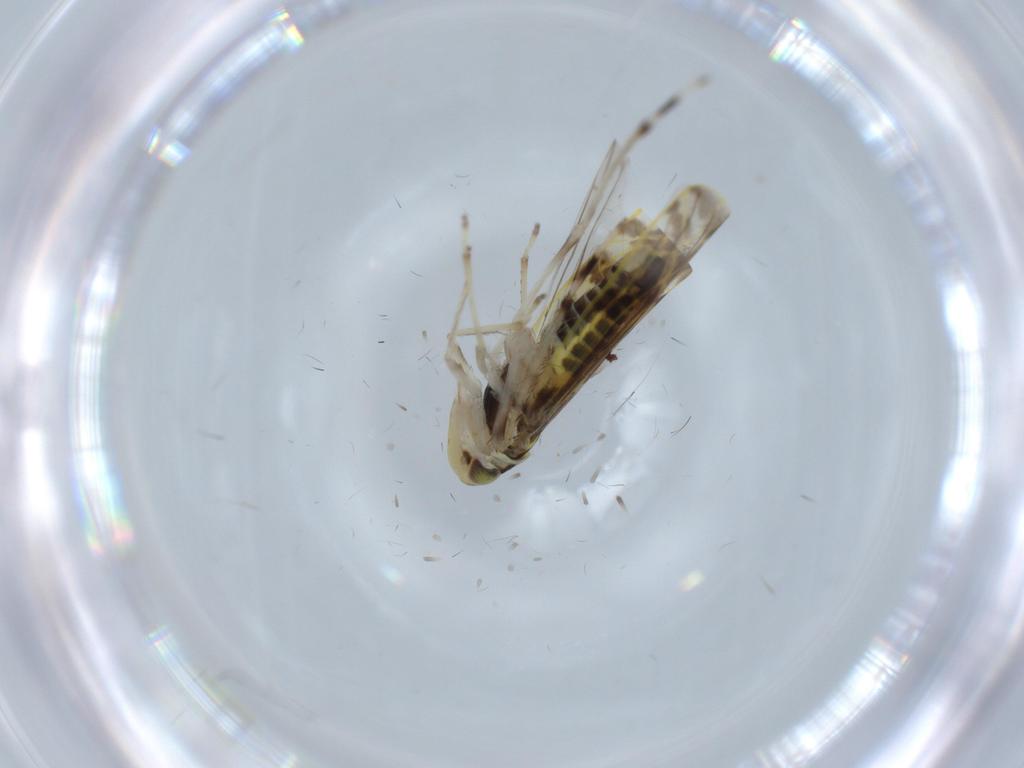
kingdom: Animalia
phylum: Arthropoda
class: Insecta
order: Hemiptera
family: Cicadellidae
